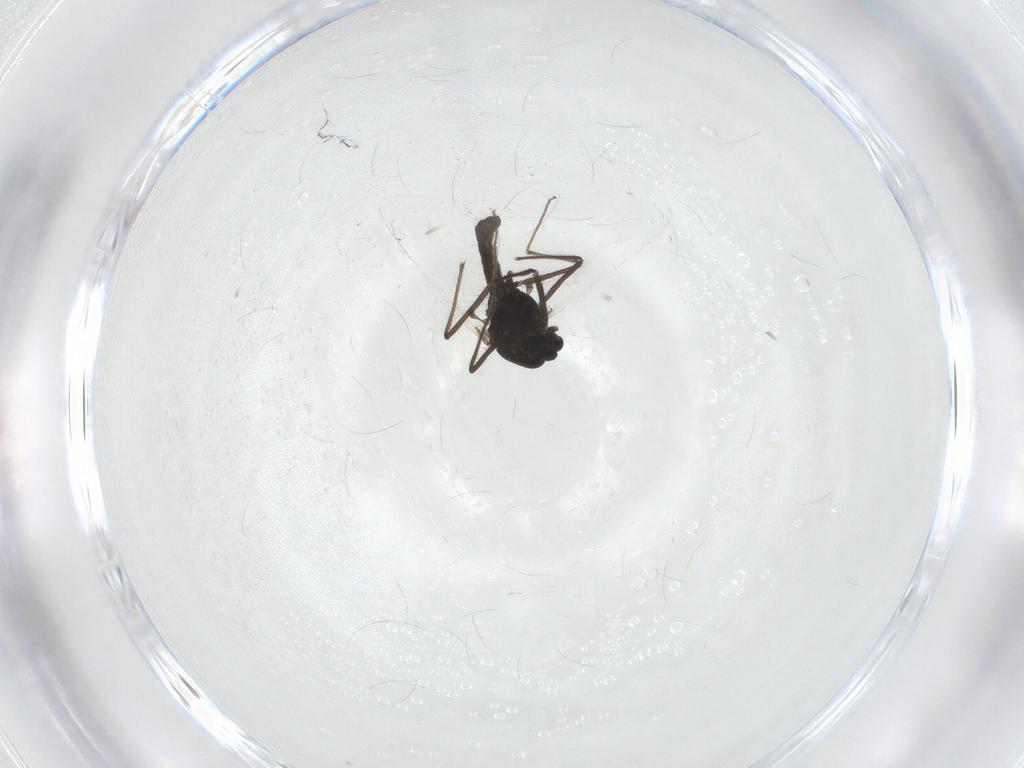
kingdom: Animalia
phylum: Arthropoda
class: Insecta
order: Diptera
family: Chironomidae
